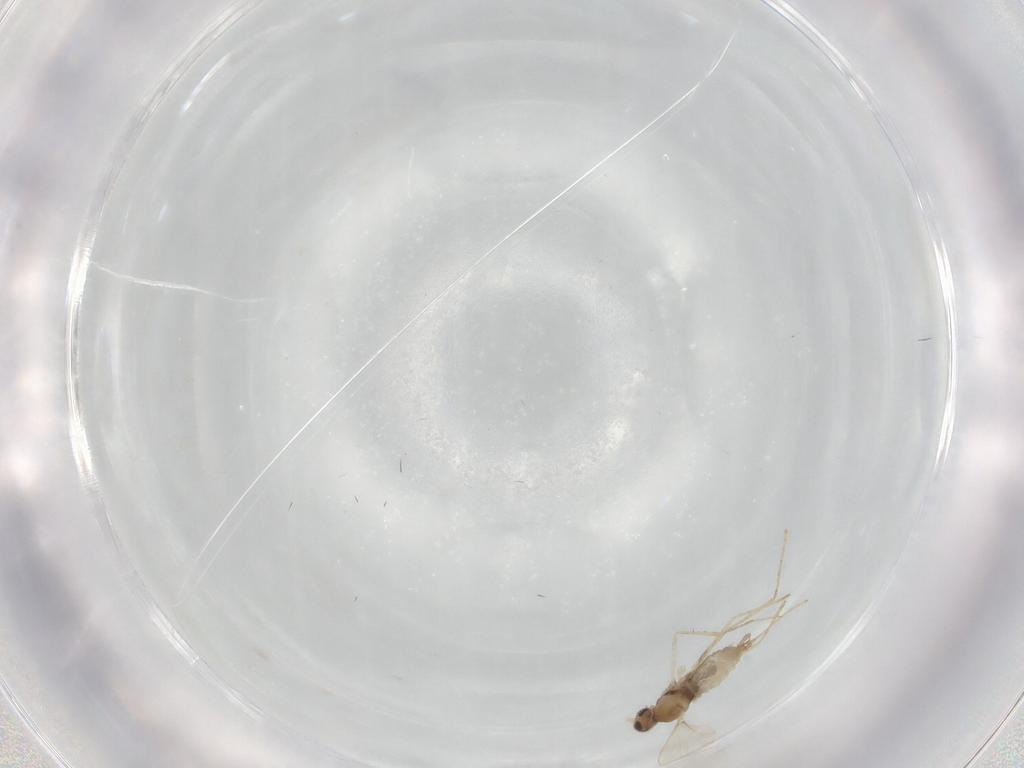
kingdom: Animalia
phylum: Arthropoda
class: Insecta
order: Diptera
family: Cecidomyiidae
